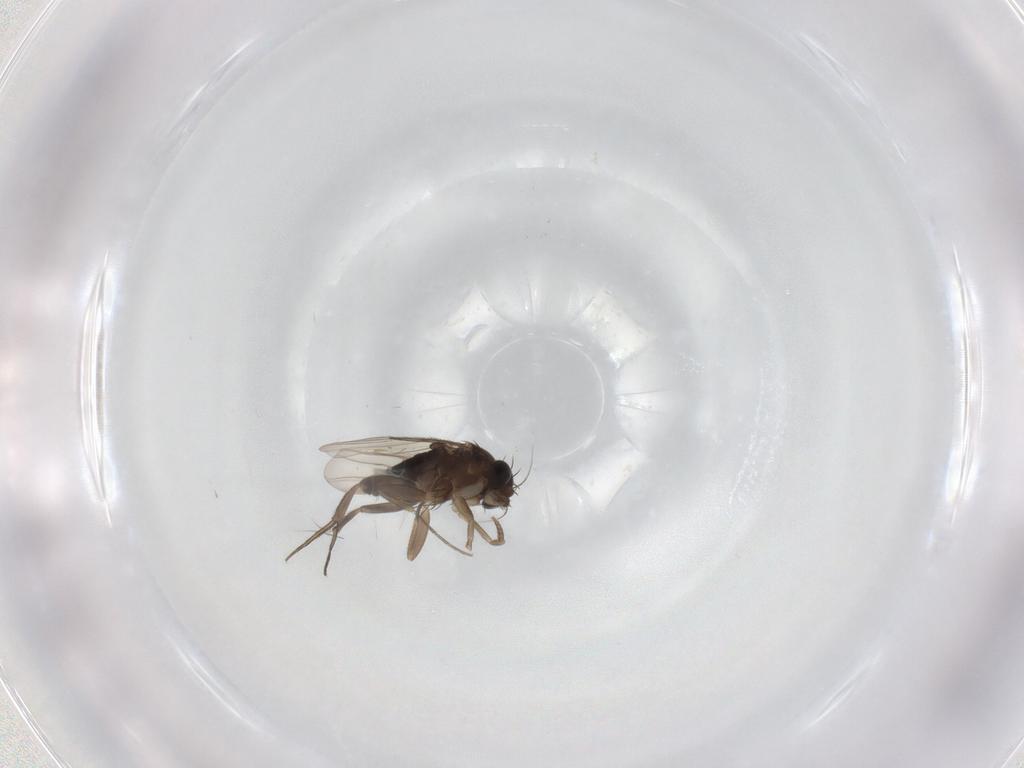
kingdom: Animalia
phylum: Arthropoda
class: Insecta
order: Diptera
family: Phoridae
